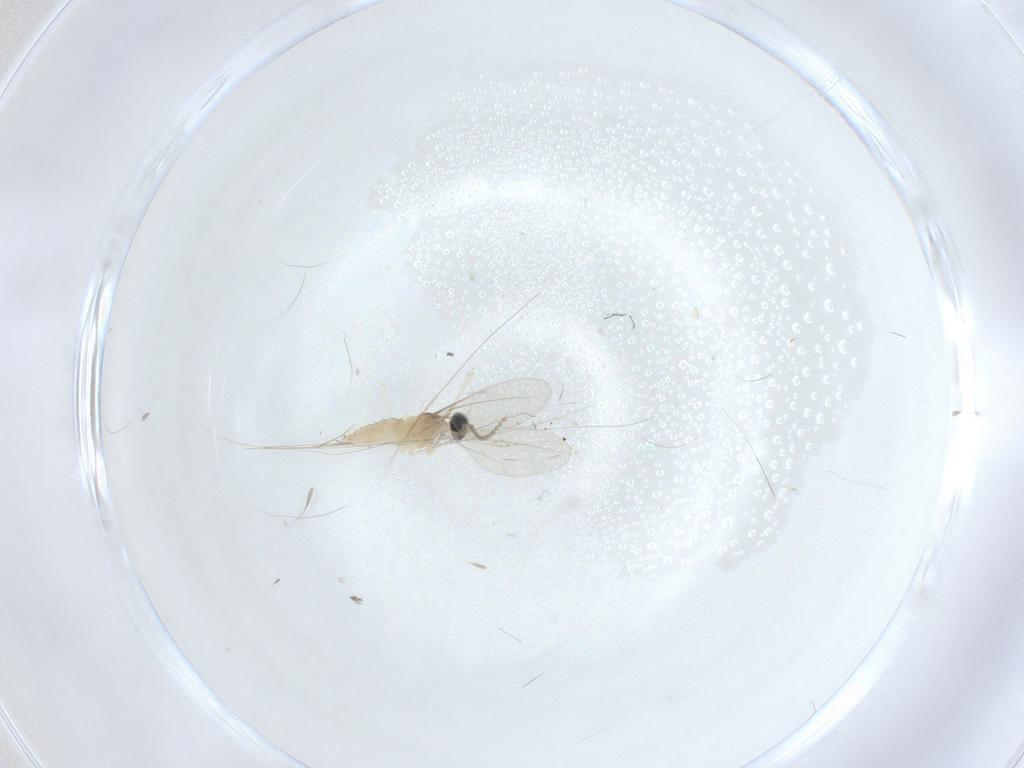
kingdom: Animalia
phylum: Arthropoda
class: Insecta
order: Diptera
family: Cecidomyiidae
